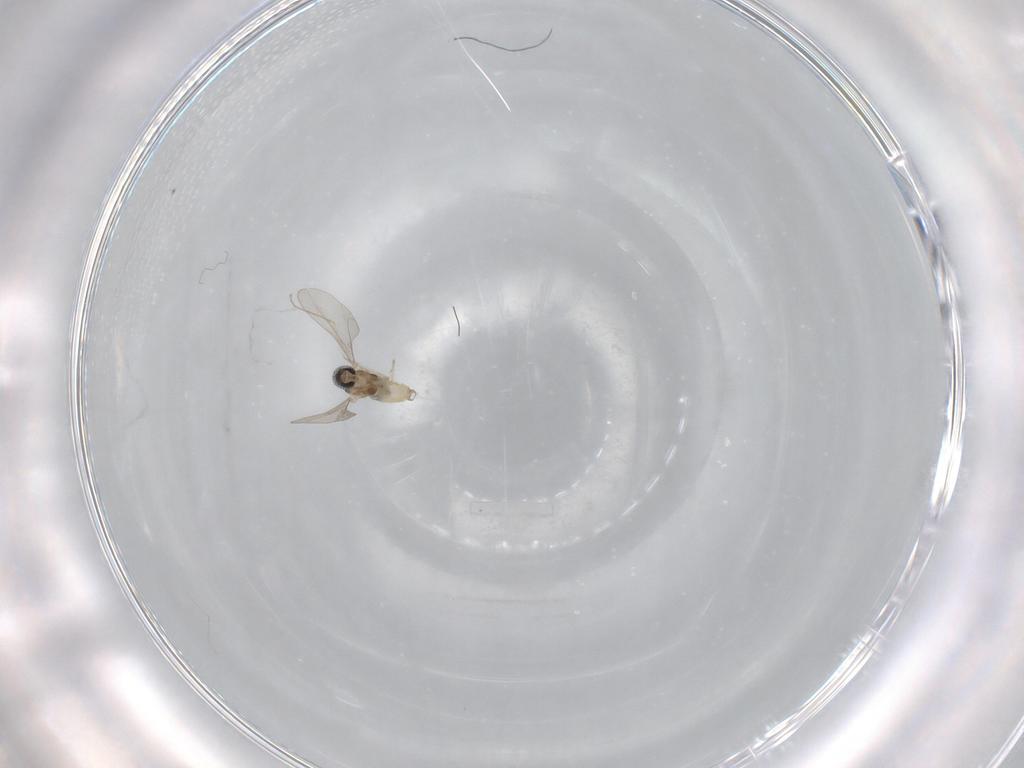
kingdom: Animalia
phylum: Arthropoda
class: Insecta
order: Diptera
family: Cecidomyiidae
